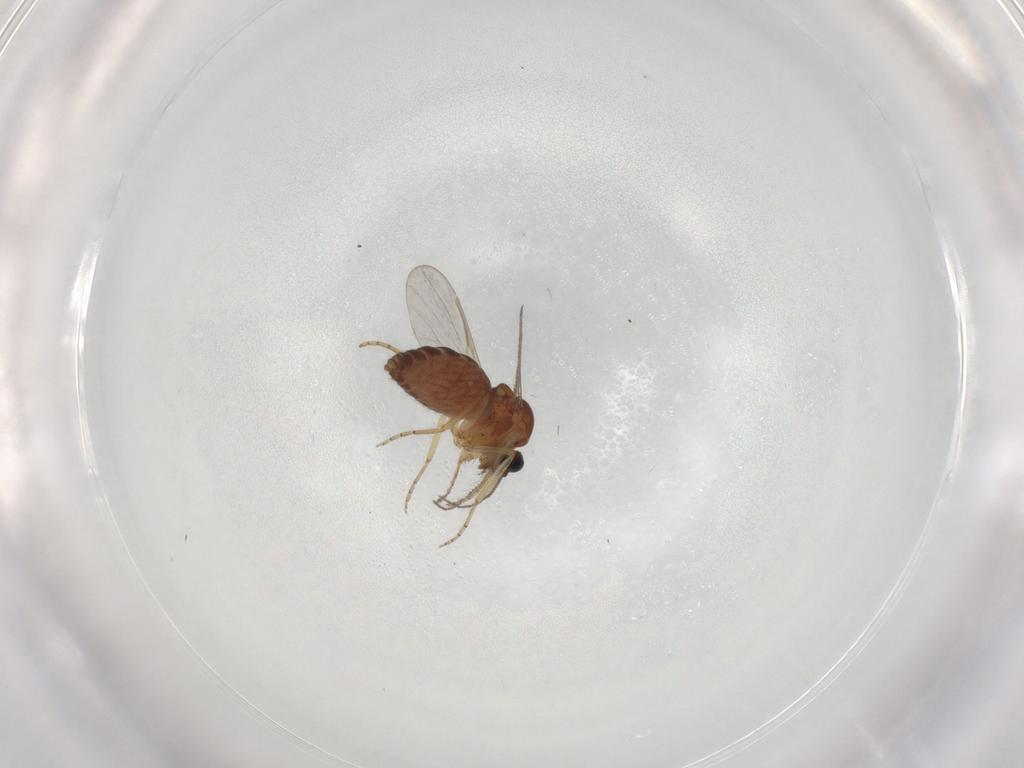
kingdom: Animalia
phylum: Arthropoda
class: Insecta
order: Diptera
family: Ceratopogonidae
